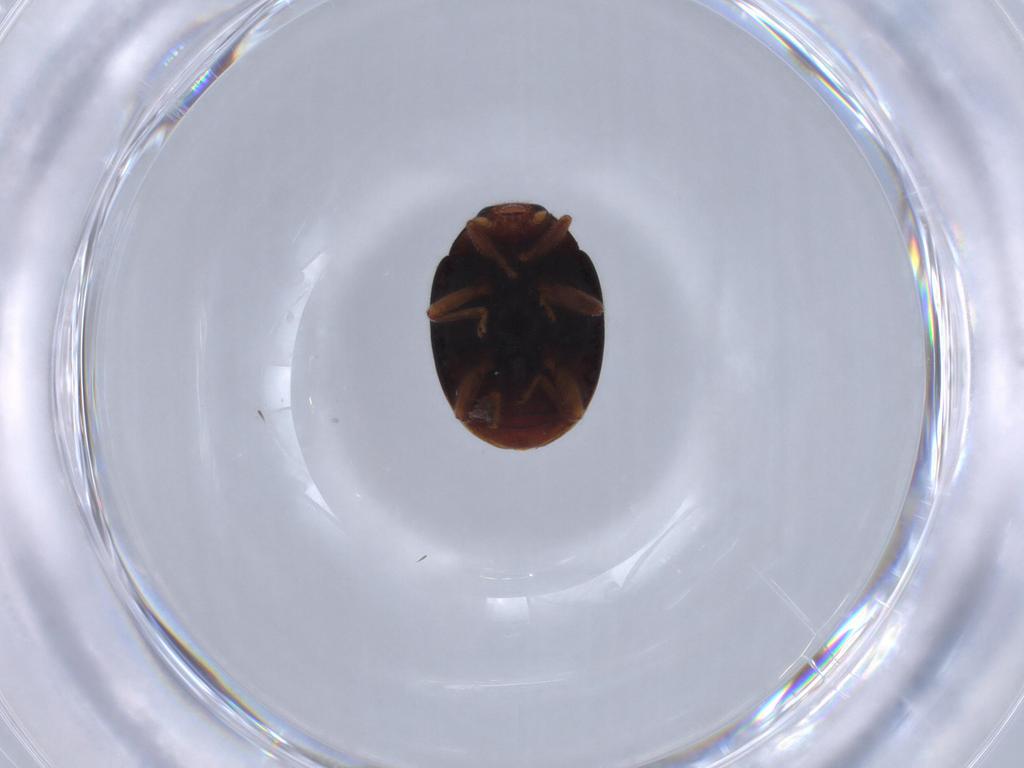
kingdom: Animalia
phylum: Arthropoda
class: Insecta
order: Coleoptera
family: Coccinellidae
